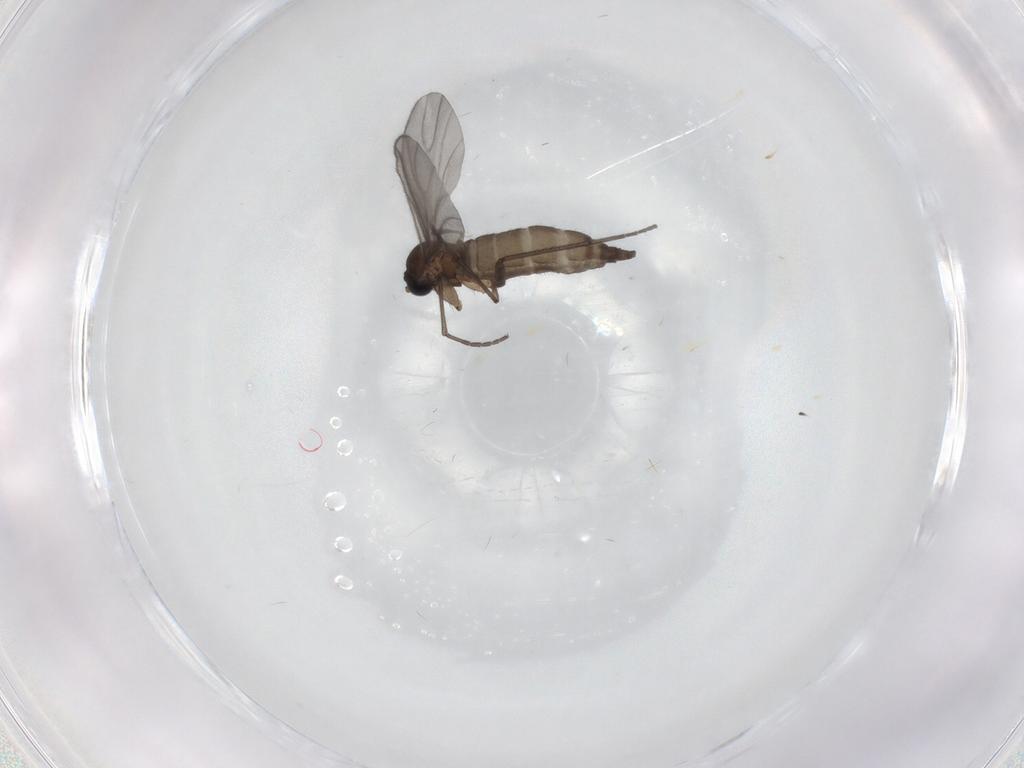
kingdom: Animalia
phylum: Arthropoda
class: Insecta
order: Diptera
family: Sciaridae
